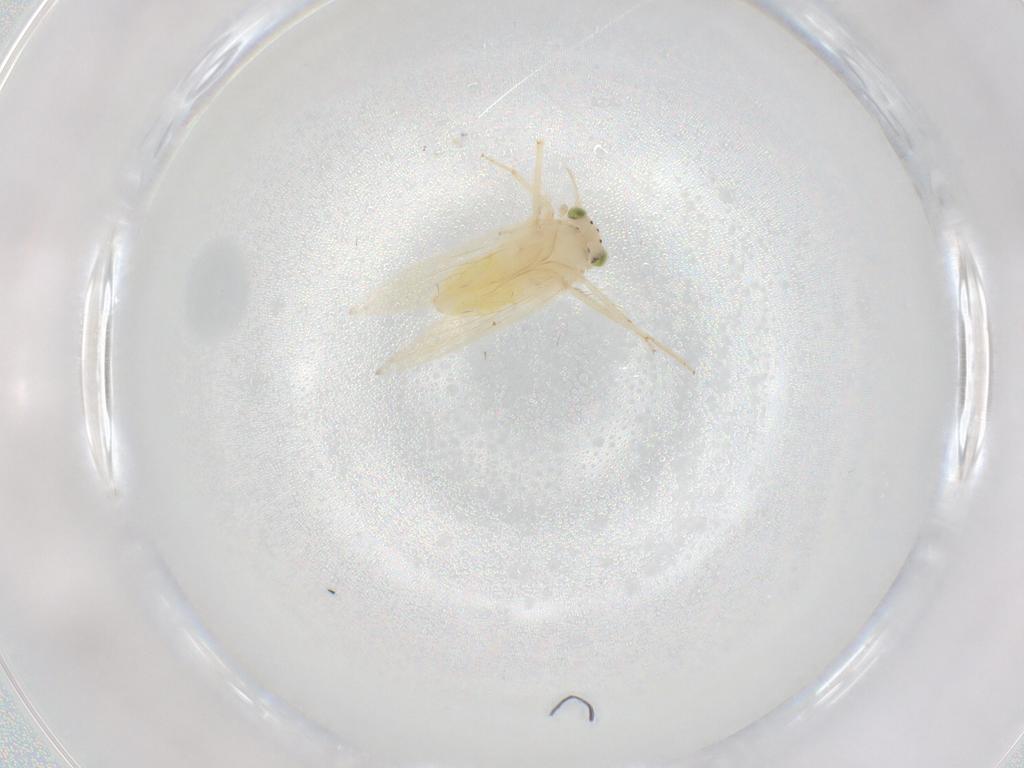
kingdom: Animalia
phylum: Arthropoda
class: Insecta
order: Psocodea
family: Lepidopsocidae
